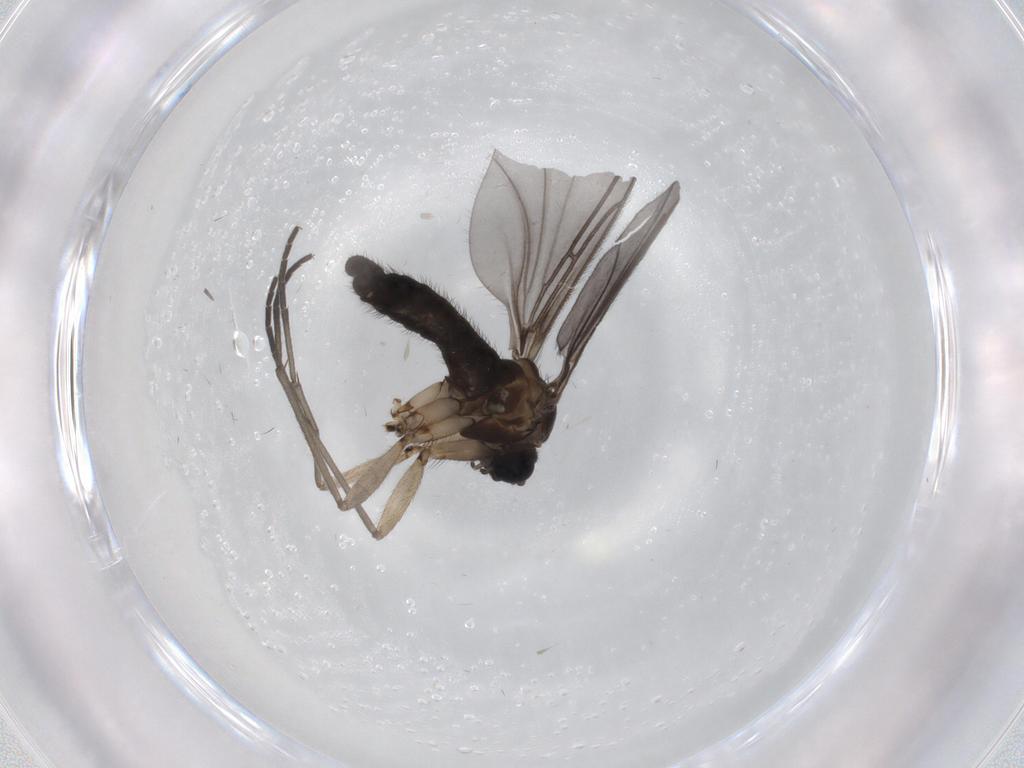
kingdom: Animalia
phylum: Arthropoda
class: Insecta
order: Diptera
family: Sciaridae
